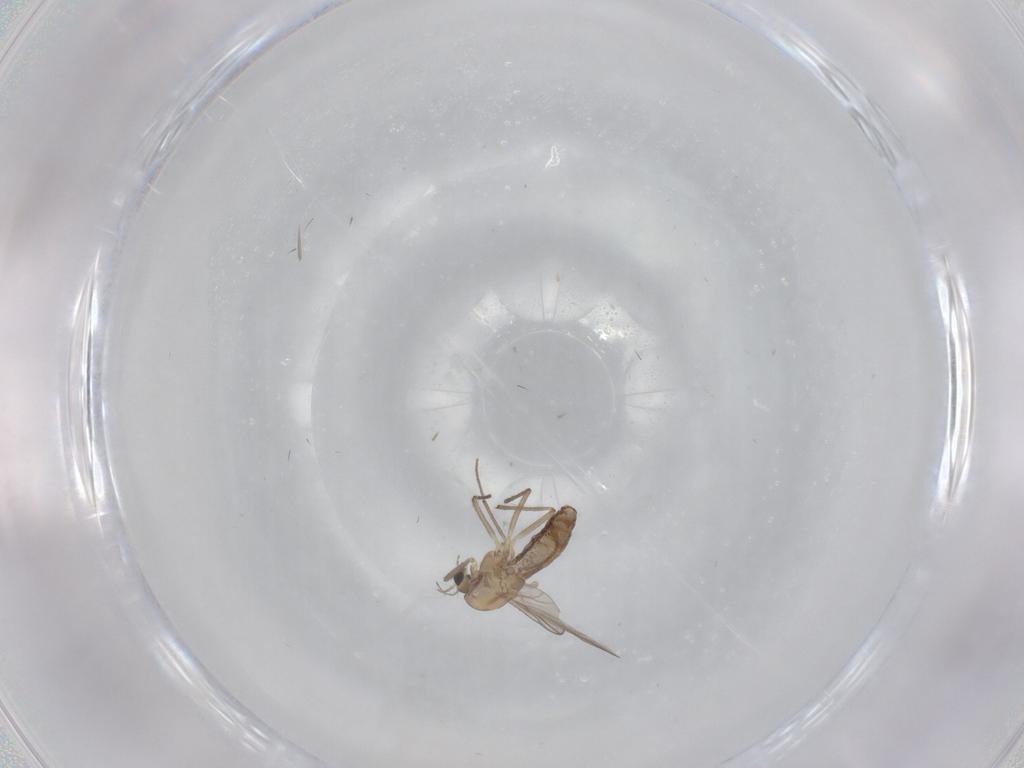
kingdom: Animalia
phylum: Arthropoda
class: Insecta
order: Diptera
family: Chironomidae
